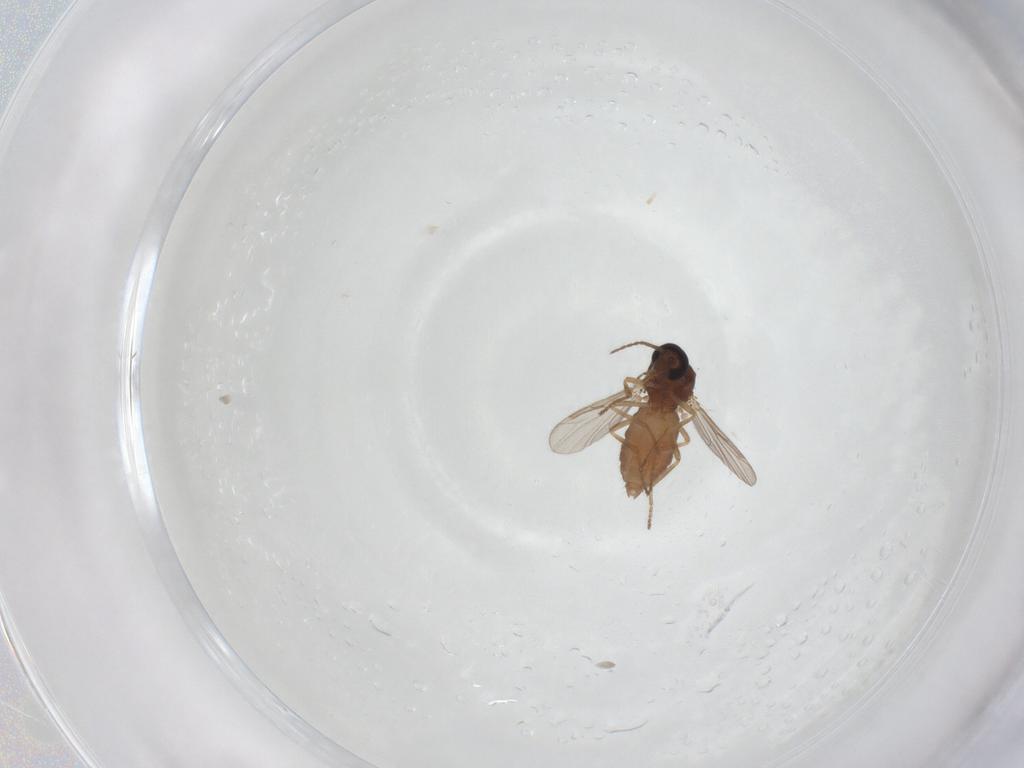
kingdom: Animalia
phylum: Arthropoda
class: Insecta
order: Diptera
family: Ceratopogonidae
